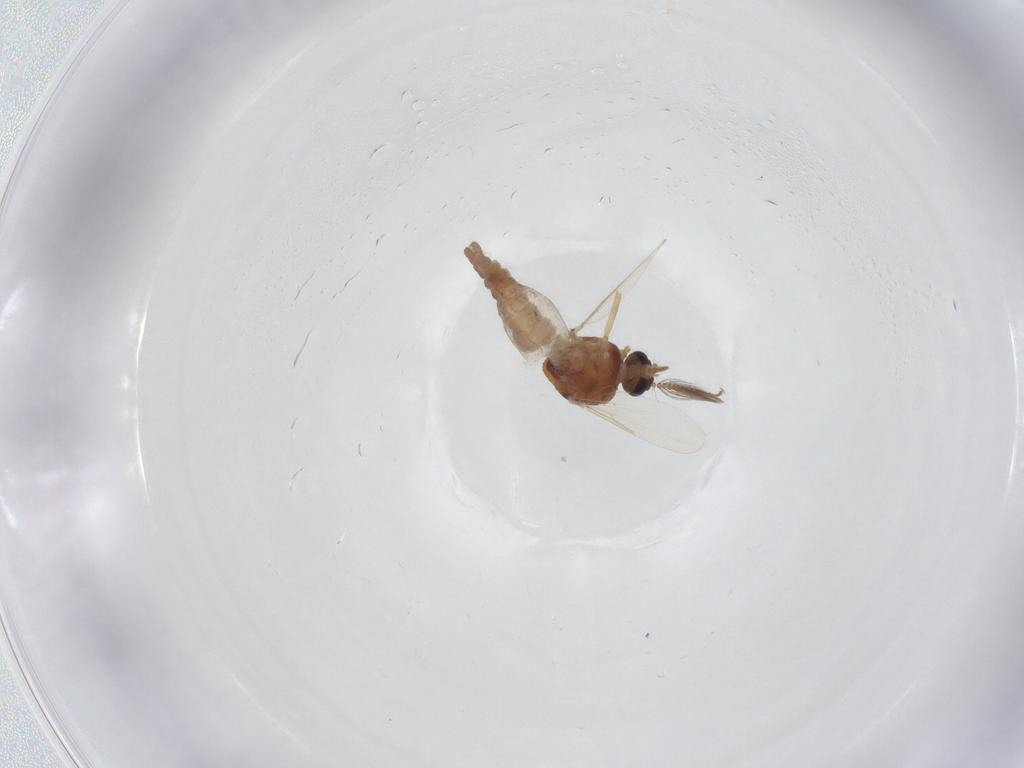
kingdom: Animalia
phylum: Arthropoda
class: Insecta
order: Diptera
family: Ceratopogonidae
